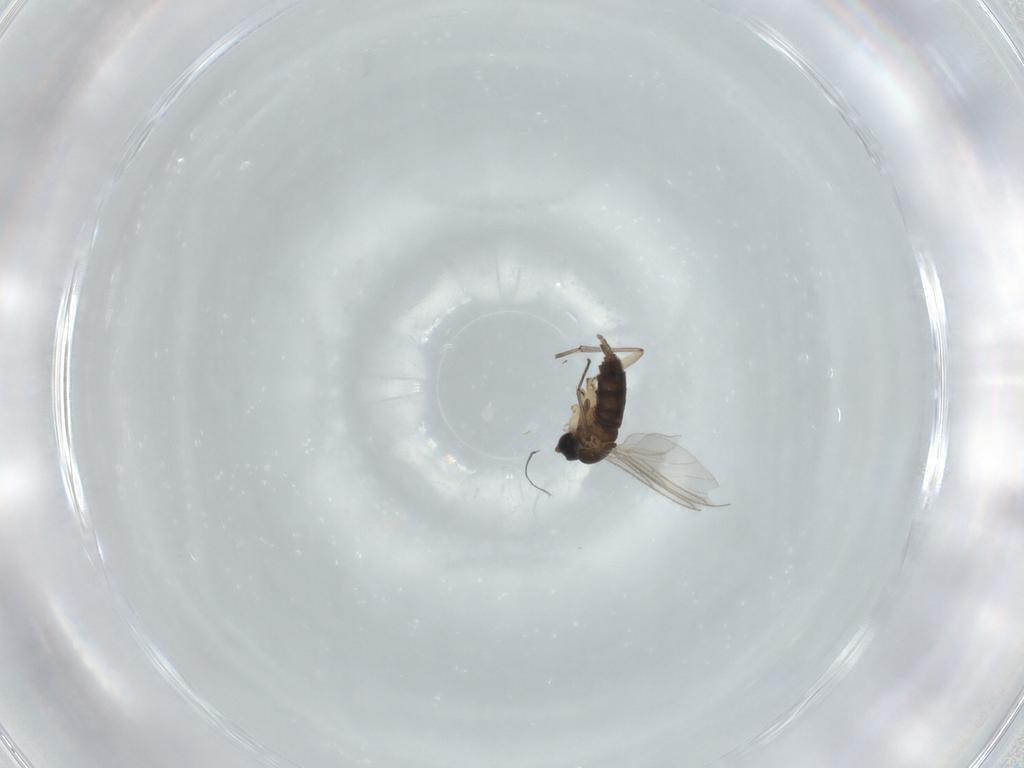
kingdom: Animalia
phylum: Arthropoda
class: Insecta
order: Diptera
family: Sciaridae
